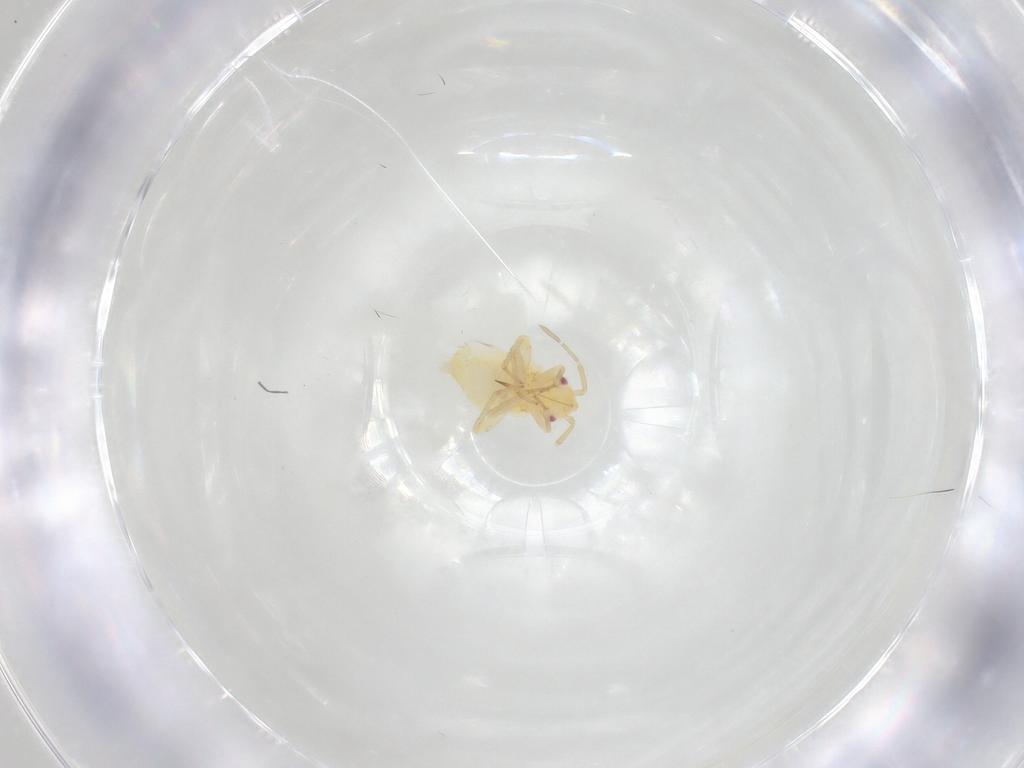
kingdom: Animalia
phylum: Arthropoda
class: Insecta
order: Hemiptera
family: Miridae
